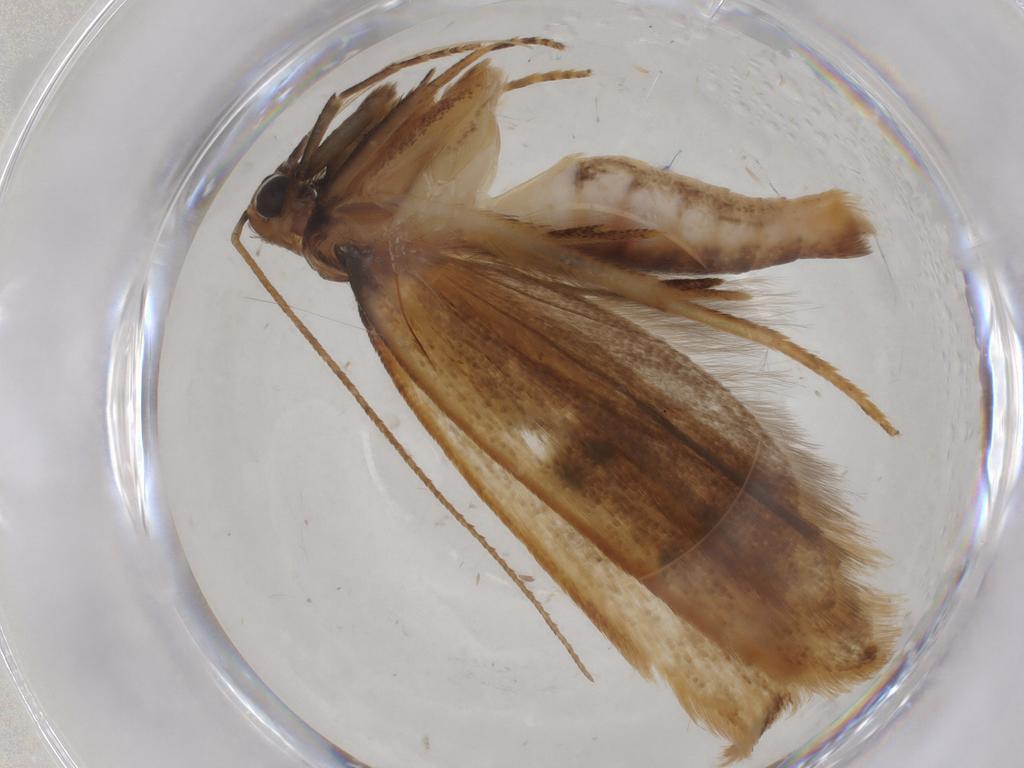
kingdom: Animalia
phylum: Arthropoda
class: Insecta
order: Lepidoptera
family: Gelechiidae
